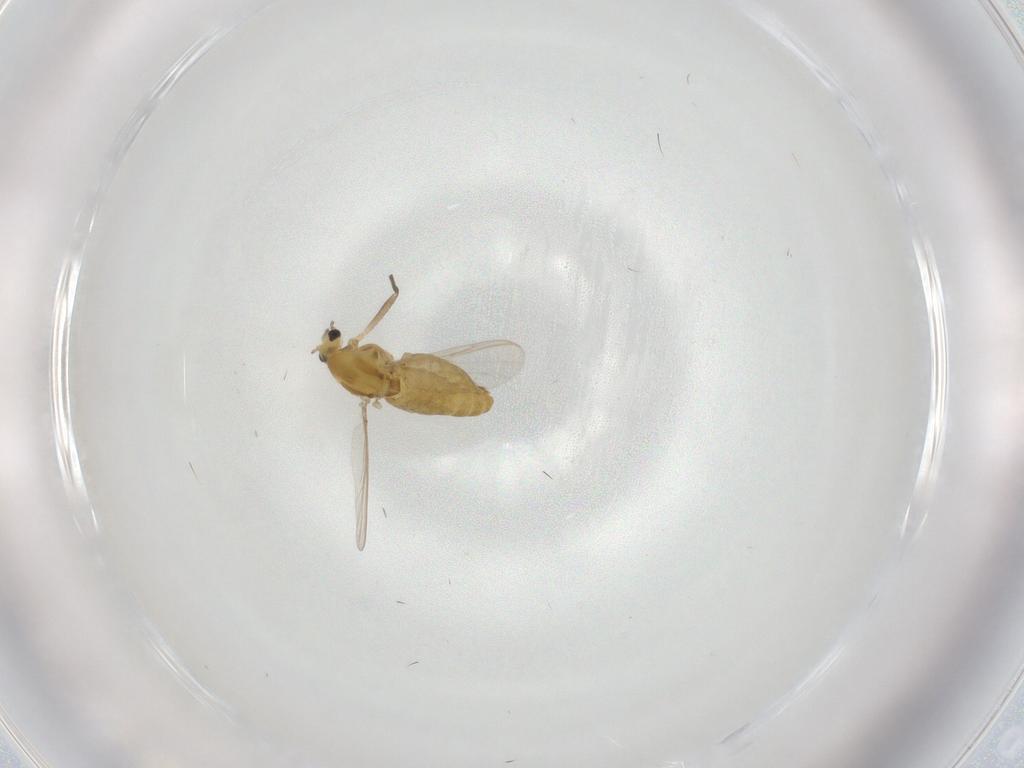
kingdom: Animalia
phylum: Arthropoda
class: Insecta
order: Diptera
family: Chironomidae
